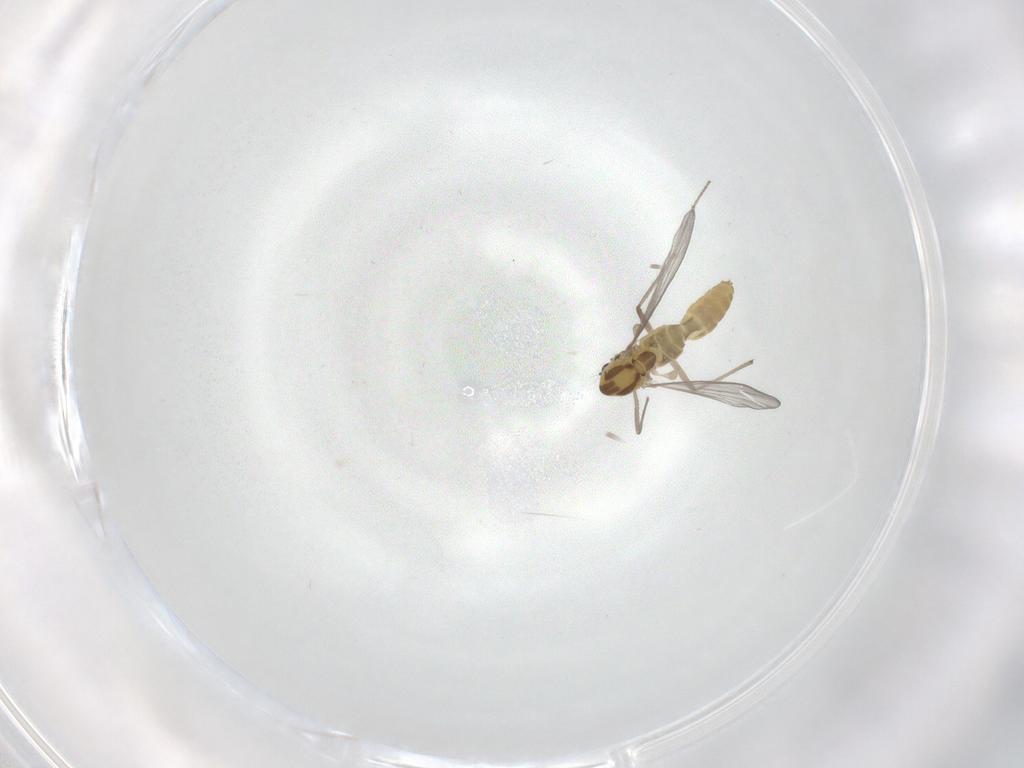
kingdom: Animalia
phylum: Arthropoda
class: Insecta
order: Diptera
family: Chironomidae
